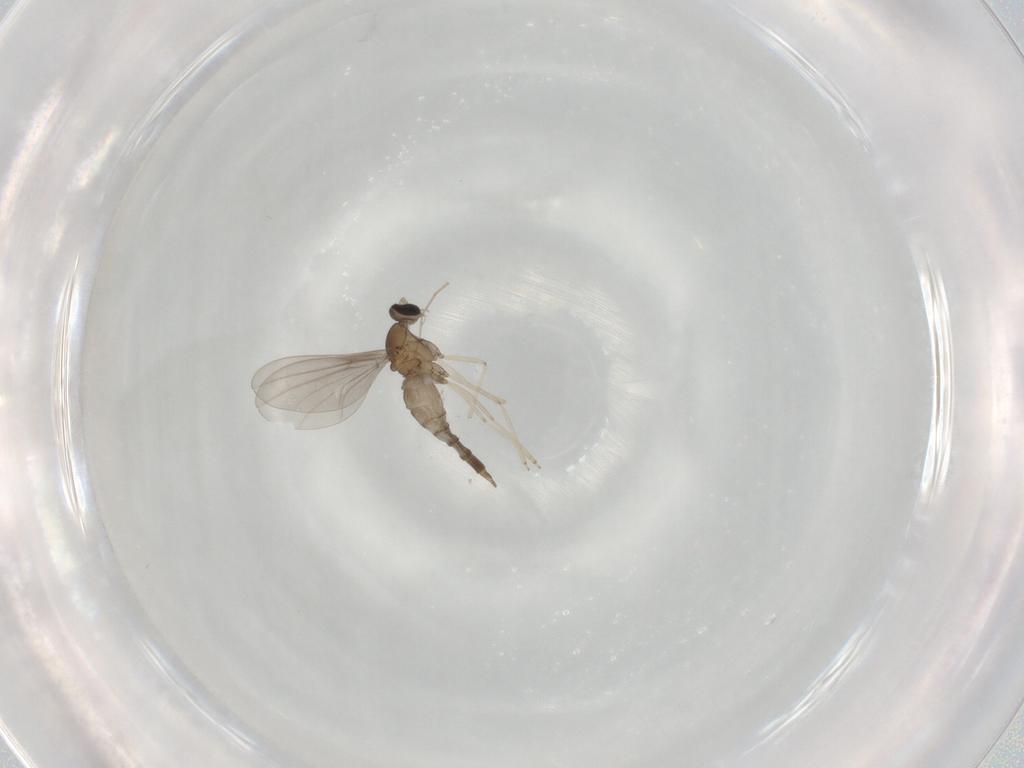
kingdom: Animalia
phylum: Arthropoda
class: Insecta
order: Diptera
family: Cecidomyiidae
